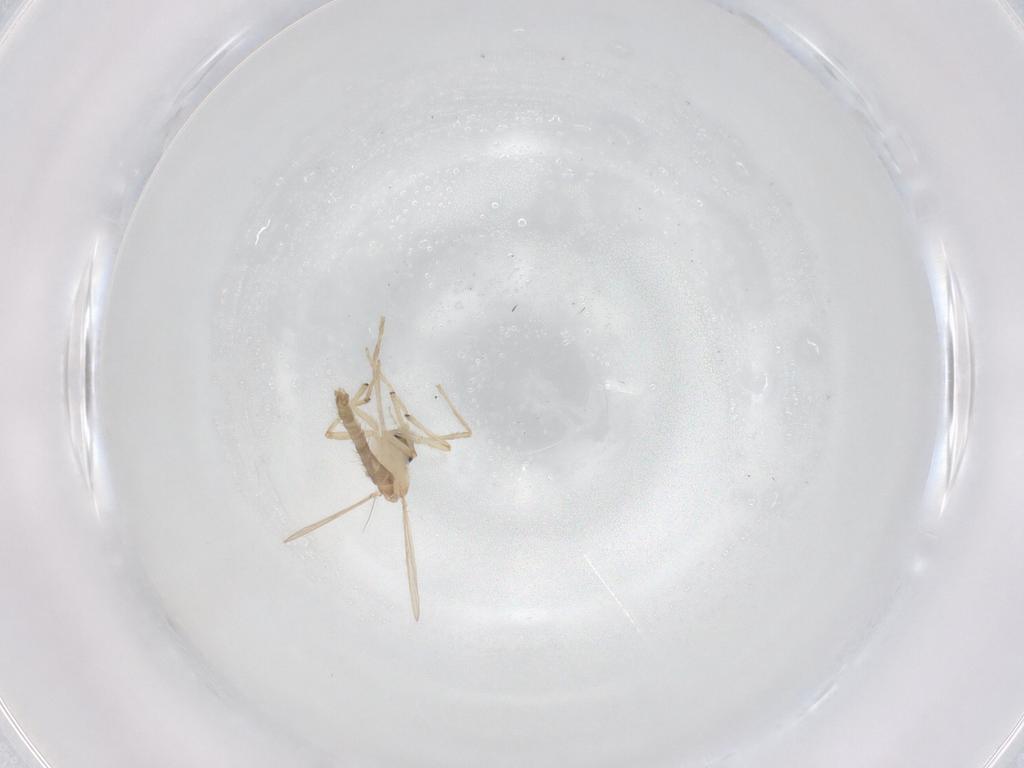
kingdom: Animalia
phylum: Arthropoda
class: Insecta
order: Diptera
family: Chironomidae
